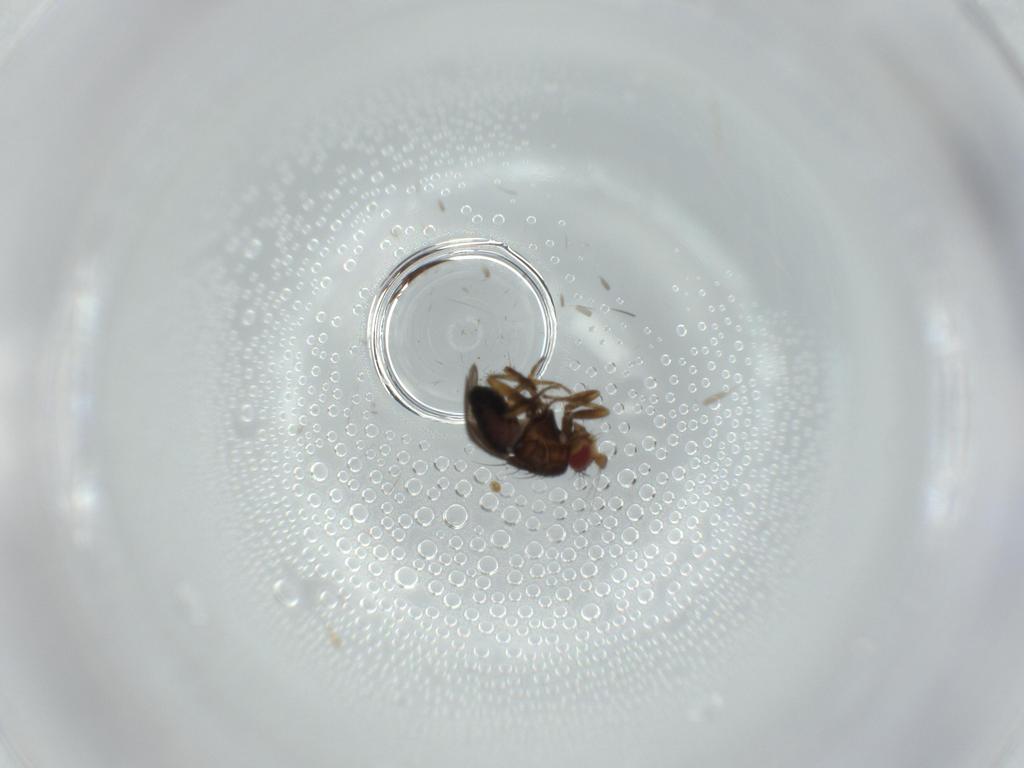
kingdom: Animalia
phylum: Arthropoda
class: Insecta
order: Diptera
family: Sphaeroceridae
